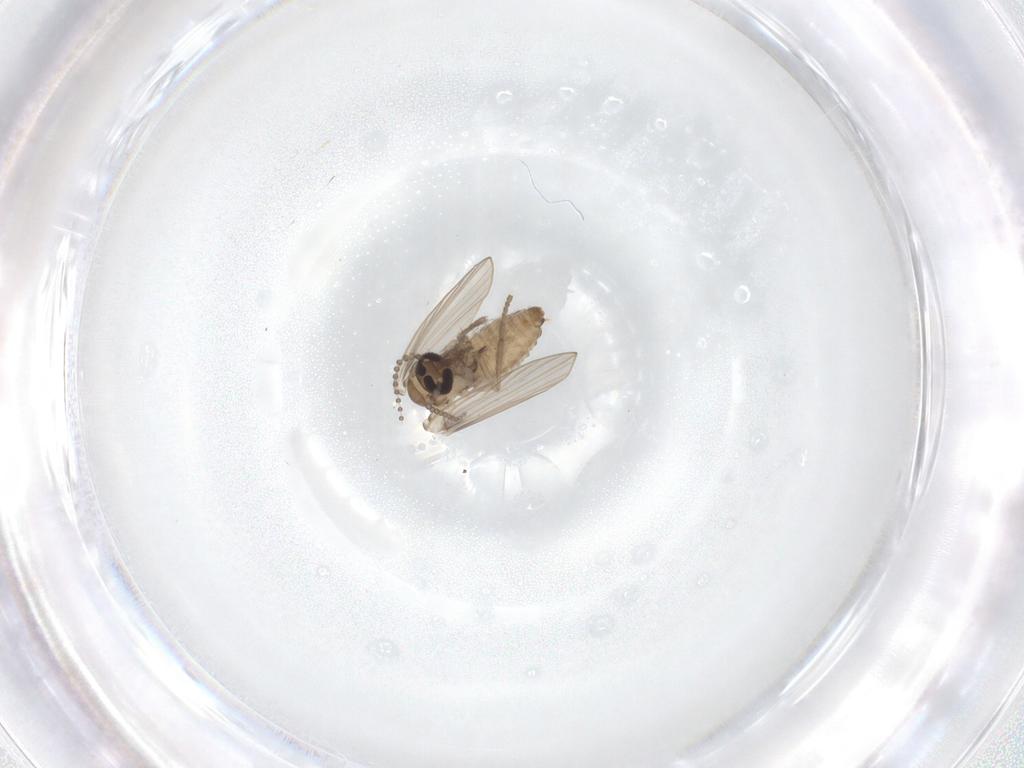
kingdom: Animalia
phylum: Arthropoda
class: Insecta
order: Diptera
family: Psychodidae
